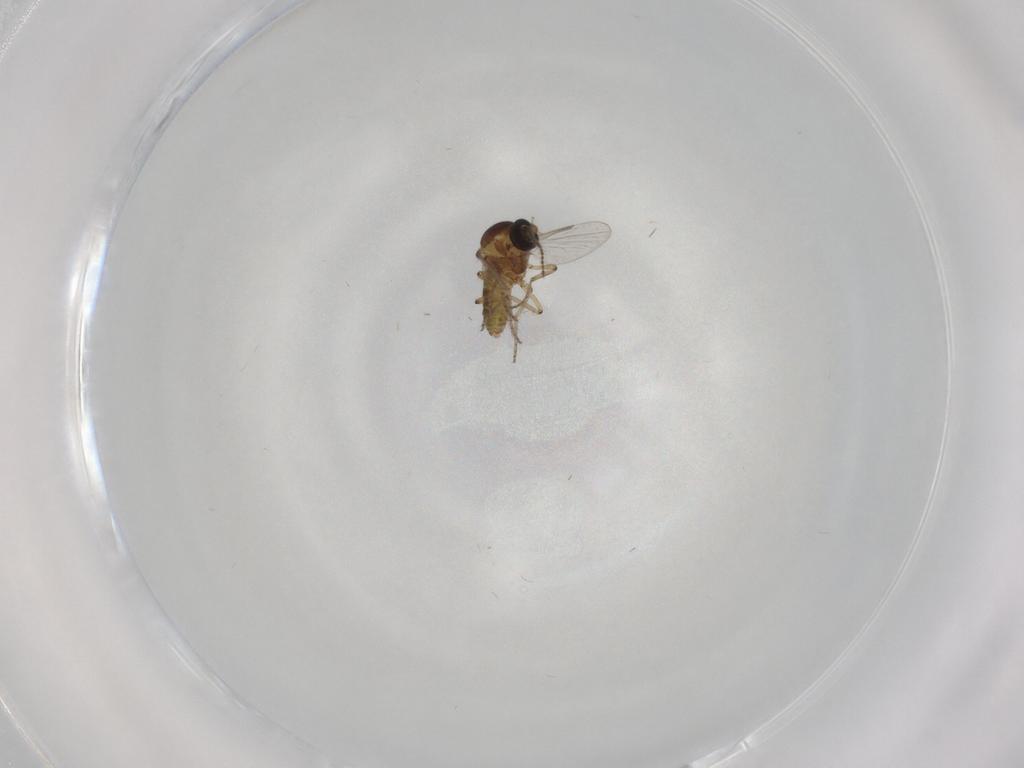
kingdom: Animalia
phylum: Arthropoda
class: Insecta
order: Diptera
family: Ceratopogonidae
